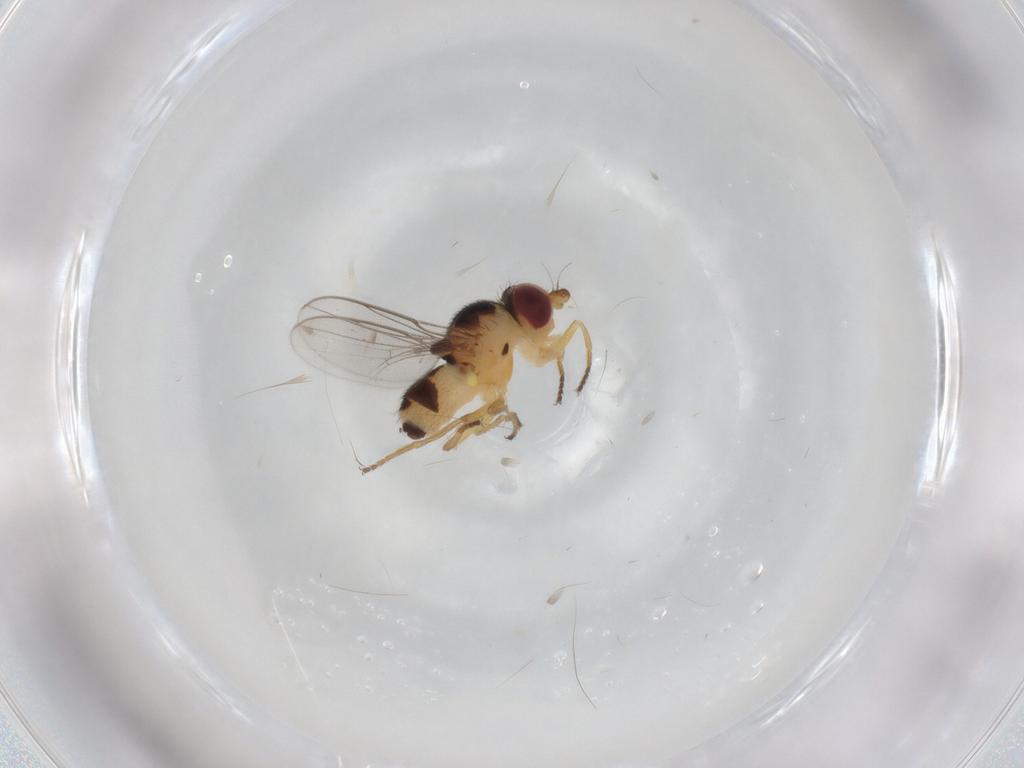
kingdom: Animalia
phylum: Arthropoda
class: Insecta
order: Diptera
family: Chloropidae
